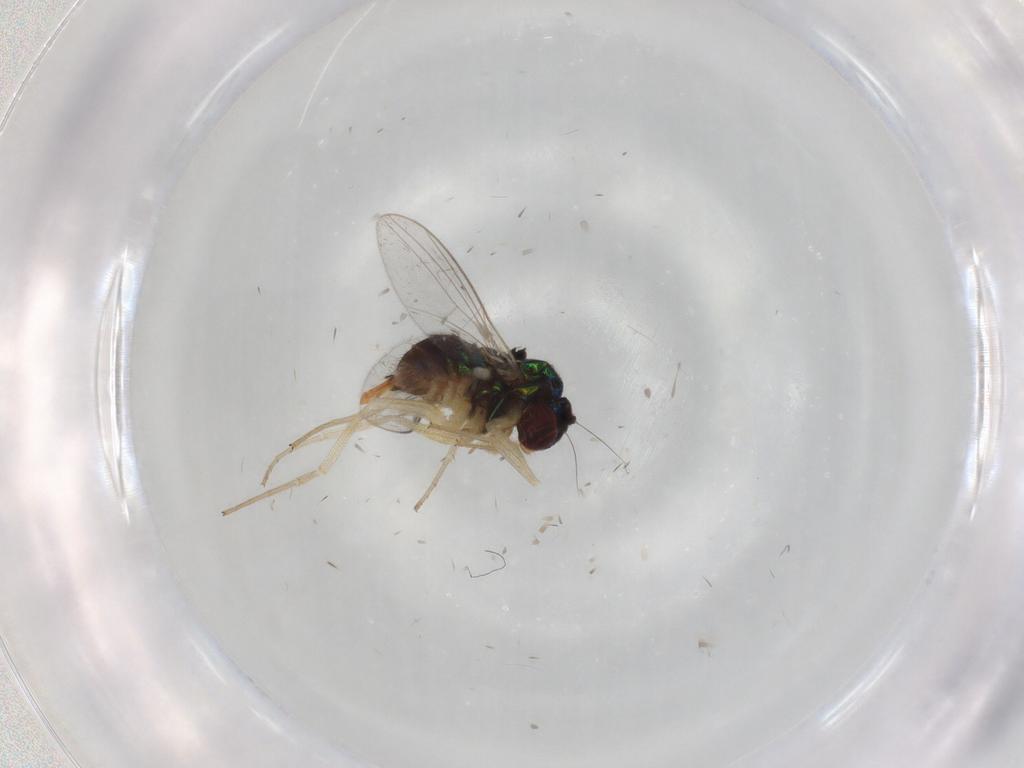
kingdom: Animalia
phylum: Arthropoda
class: Insecta
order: Diptera
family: Dolichopodidae
